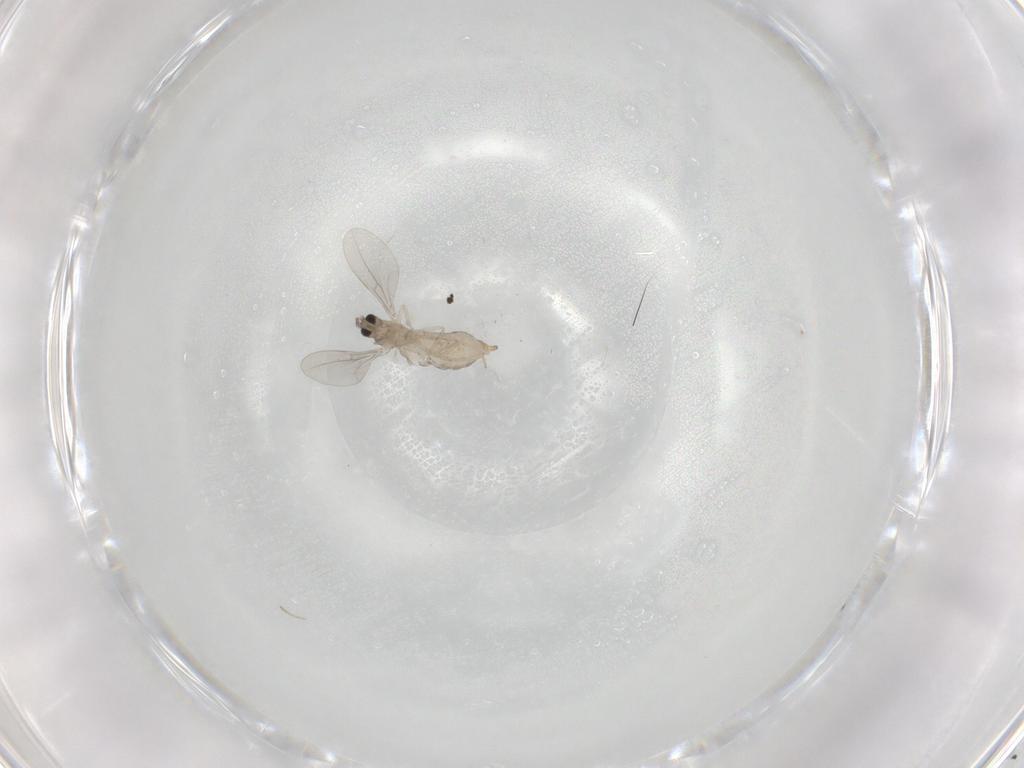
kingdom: Animalia
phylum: Arthropoda
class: Insecta
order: Diptera
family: Cecidomyiidae
